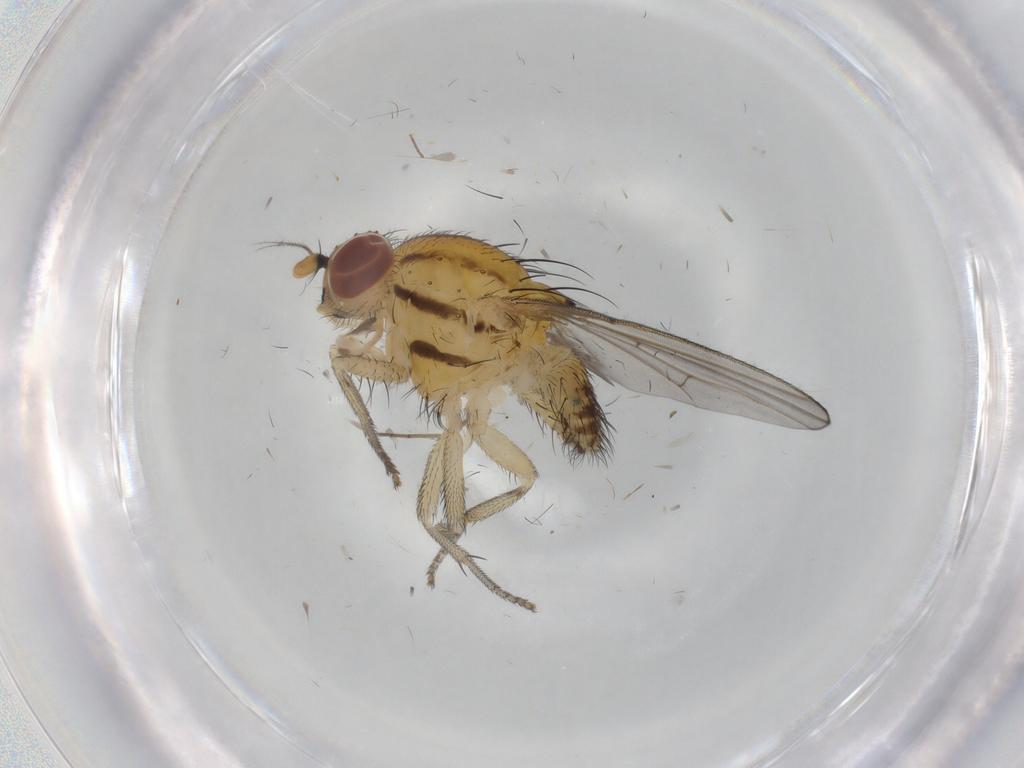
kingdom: Animalia
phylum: Arthropoda
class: Insecta
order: Diptera
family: Dolichopodidae
